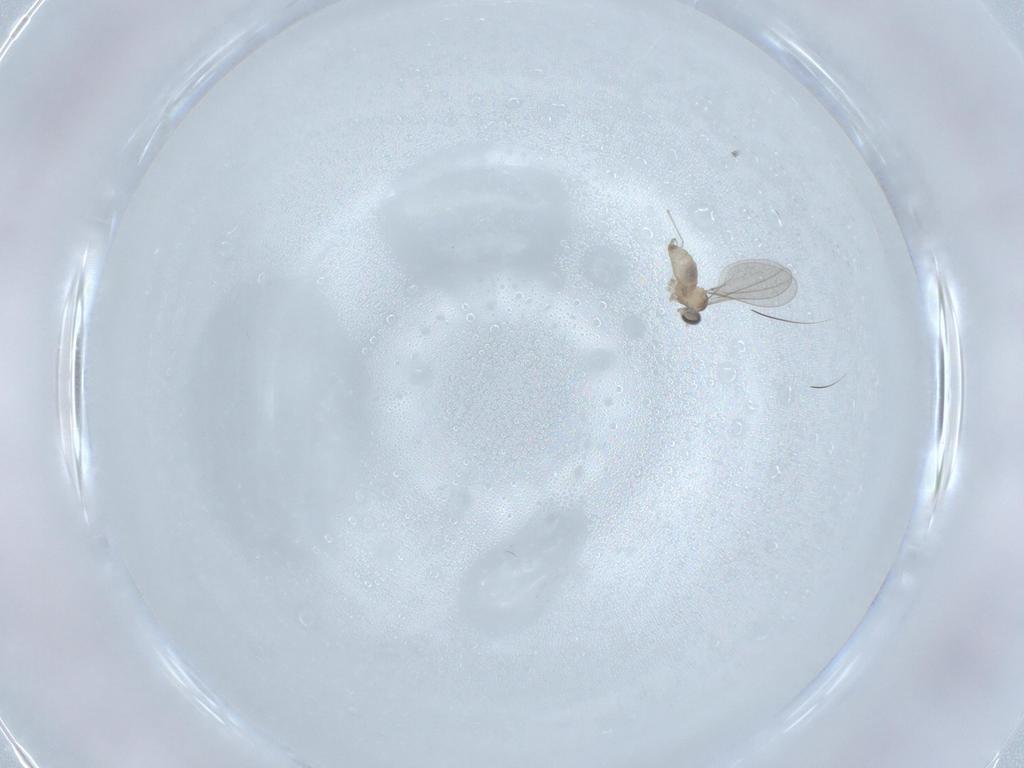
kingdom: Animalia
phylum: Arthropoda
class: Insecta
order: Diptera
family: Cecidomyiidae
